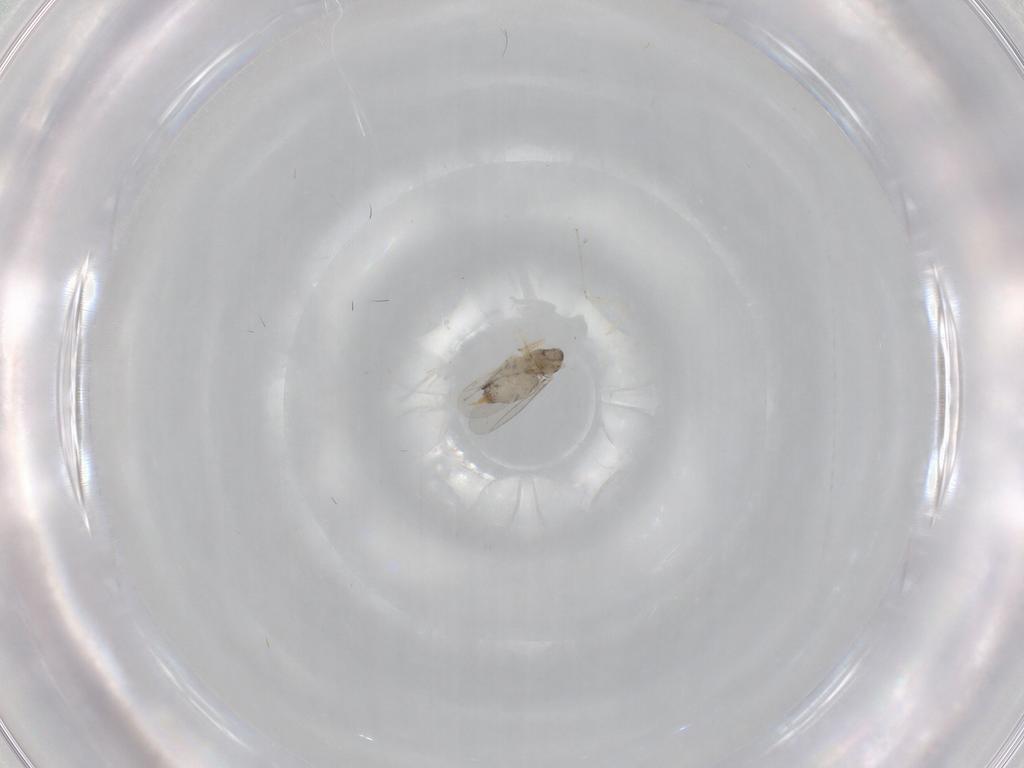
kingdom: Animalia
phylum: Arthropoda
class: Insecta
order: Diptera
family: Cecidomyiidae
